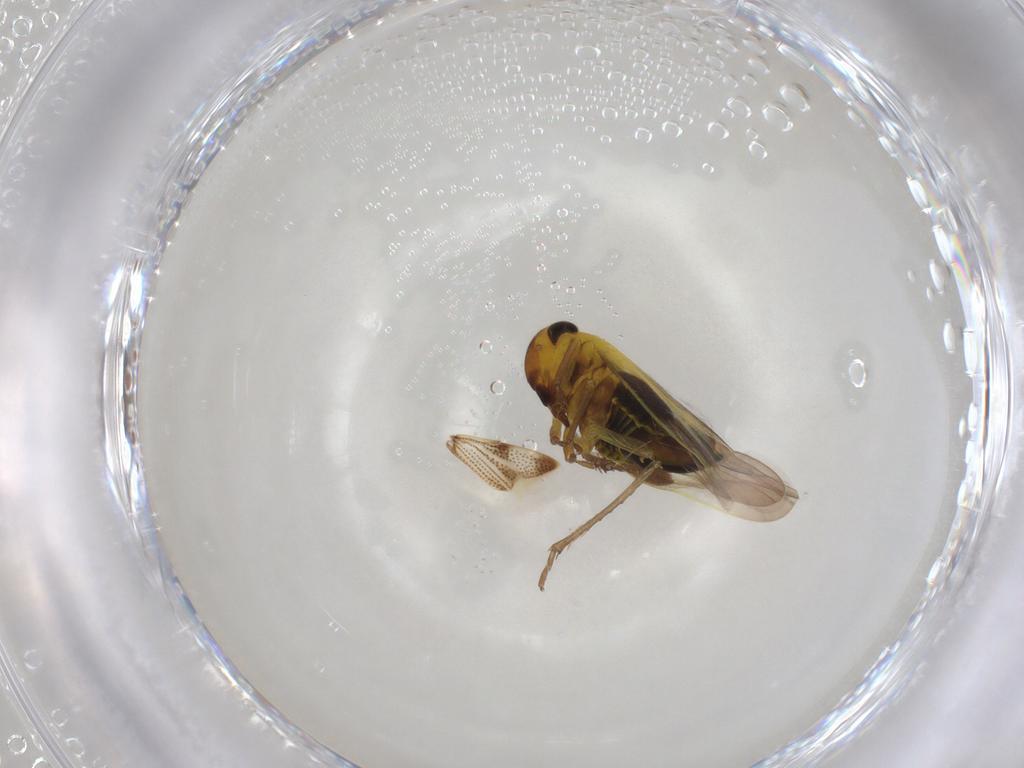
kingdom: Animalia
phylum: Arthropoda
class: Insecta
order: Hemiptera
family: Cicadellidae
